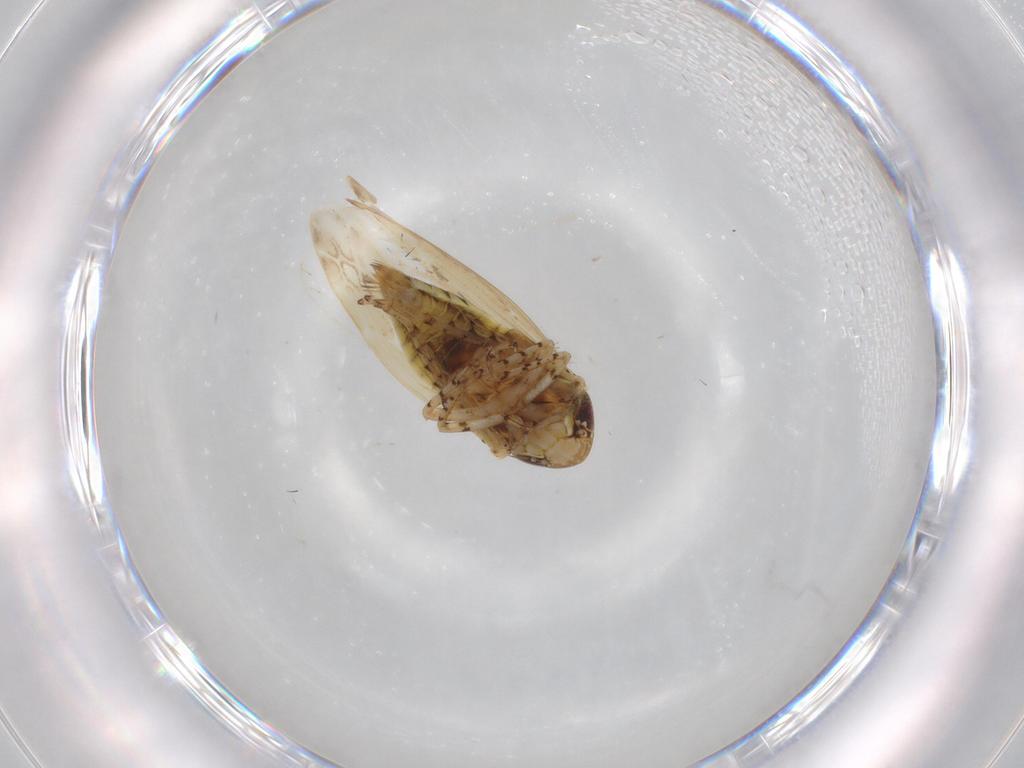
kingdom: Animalia
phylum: Arthropoda
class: Insecta
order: Hemiptera
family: Cicadellidae
